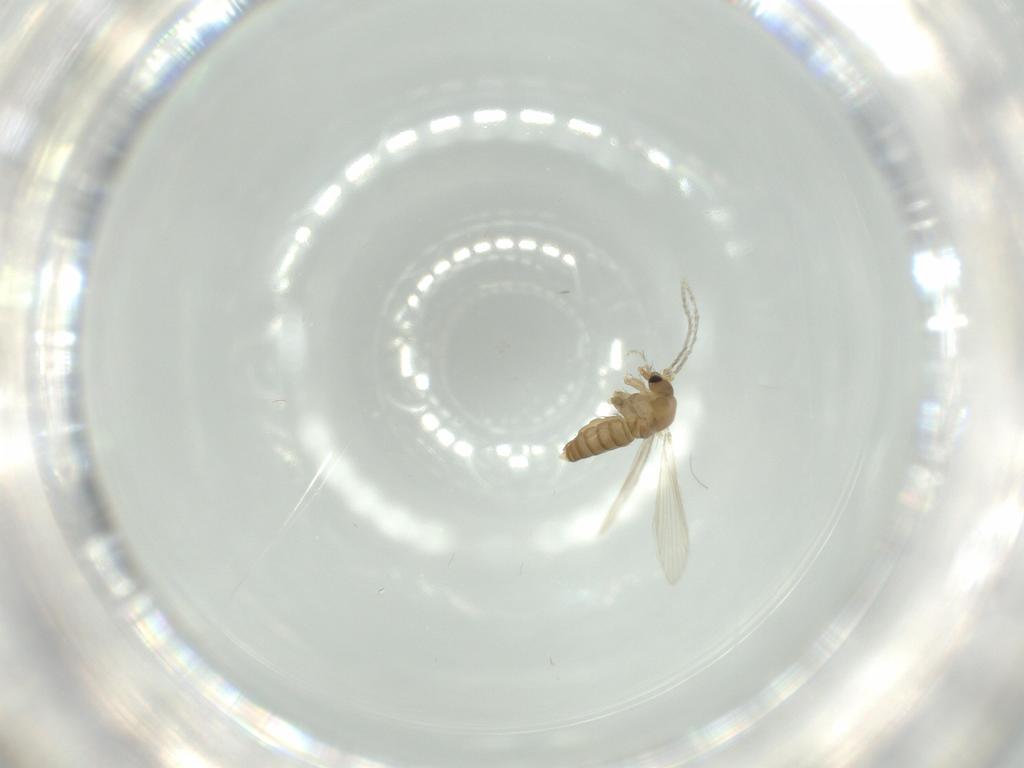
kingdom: Animalia
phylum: Arthropoda
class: Insecta
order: Diptera
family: Psychodidae
